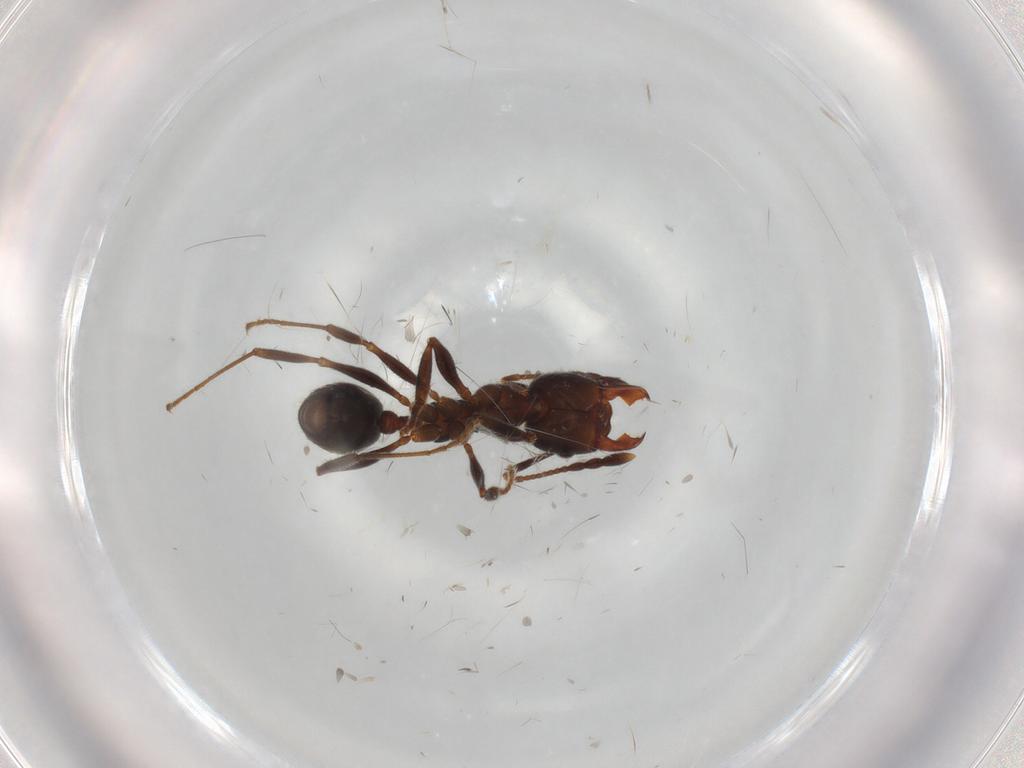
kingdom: Animalia
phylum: Arthropoda
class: Insecta
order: Hymenoptera
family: Formicidae
